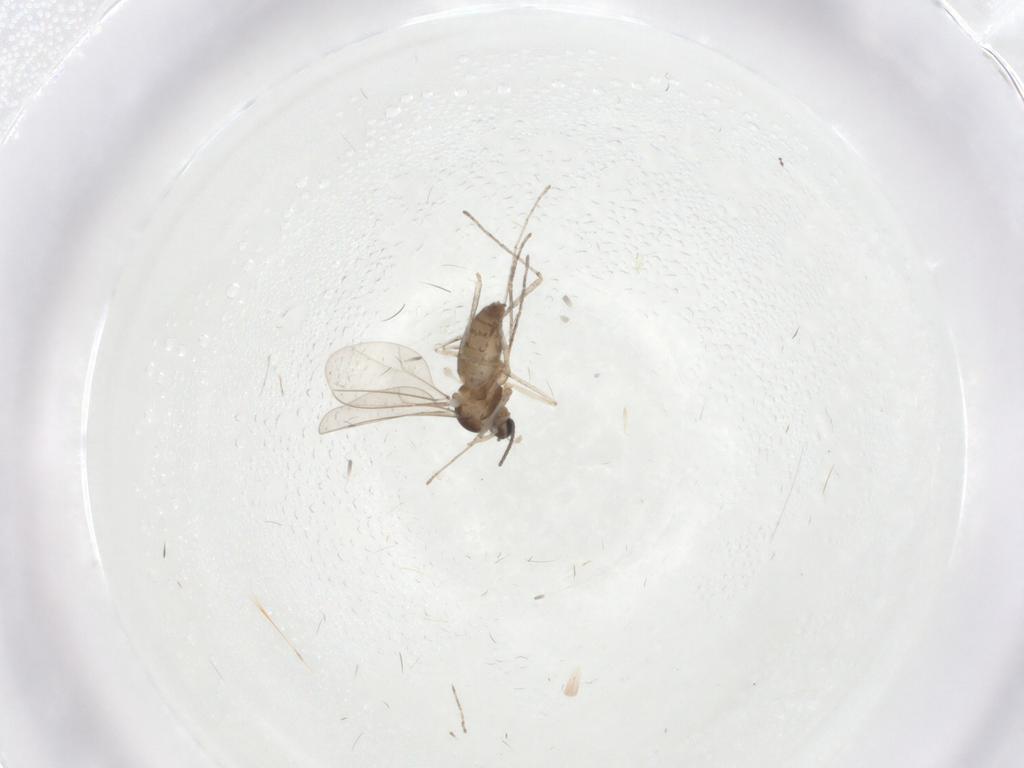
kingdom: Animalia
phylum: Arthropoda
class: Insecta
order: Diptera
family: Cecidomyiidae
